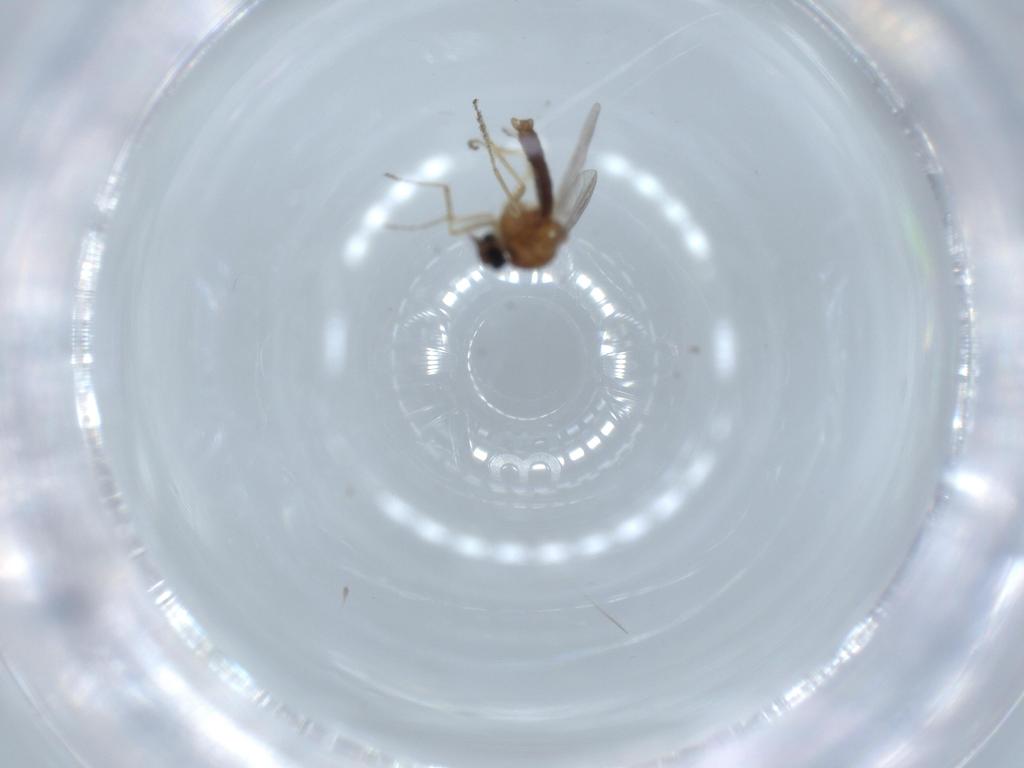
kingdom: Animalia
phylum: Arthropoda
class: Insecta
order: Diptera
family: Ceratopogonidae
